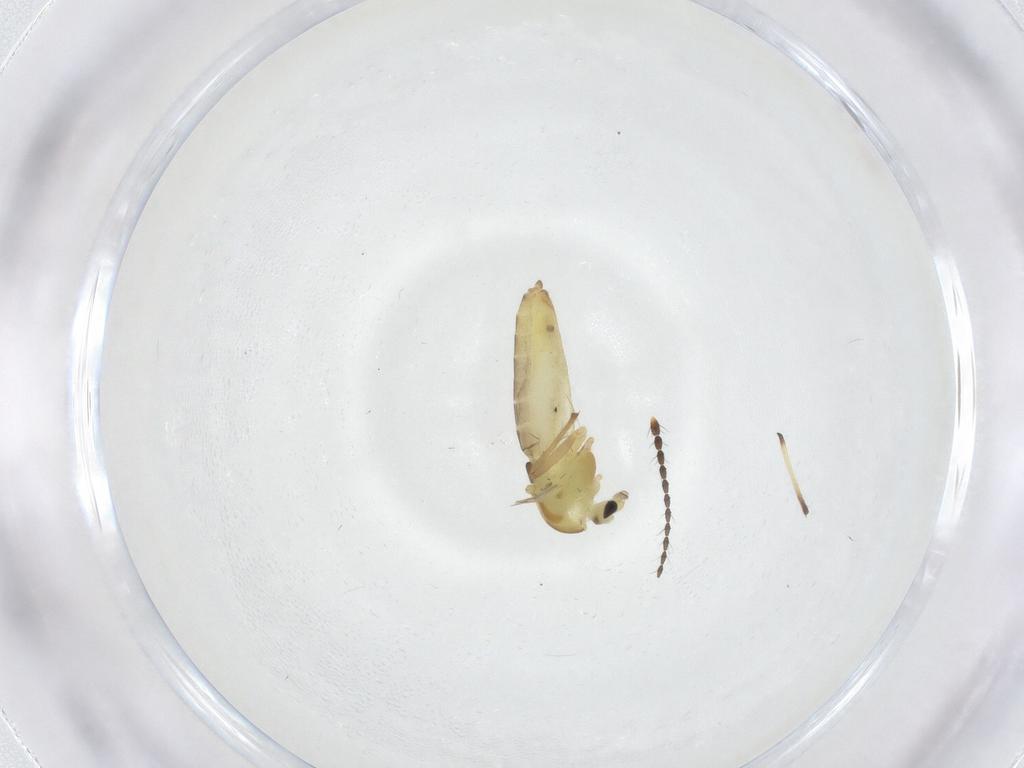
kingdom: Animalia
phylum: Arthropoda
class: Insecta
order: Diptera
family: Chironomidae
